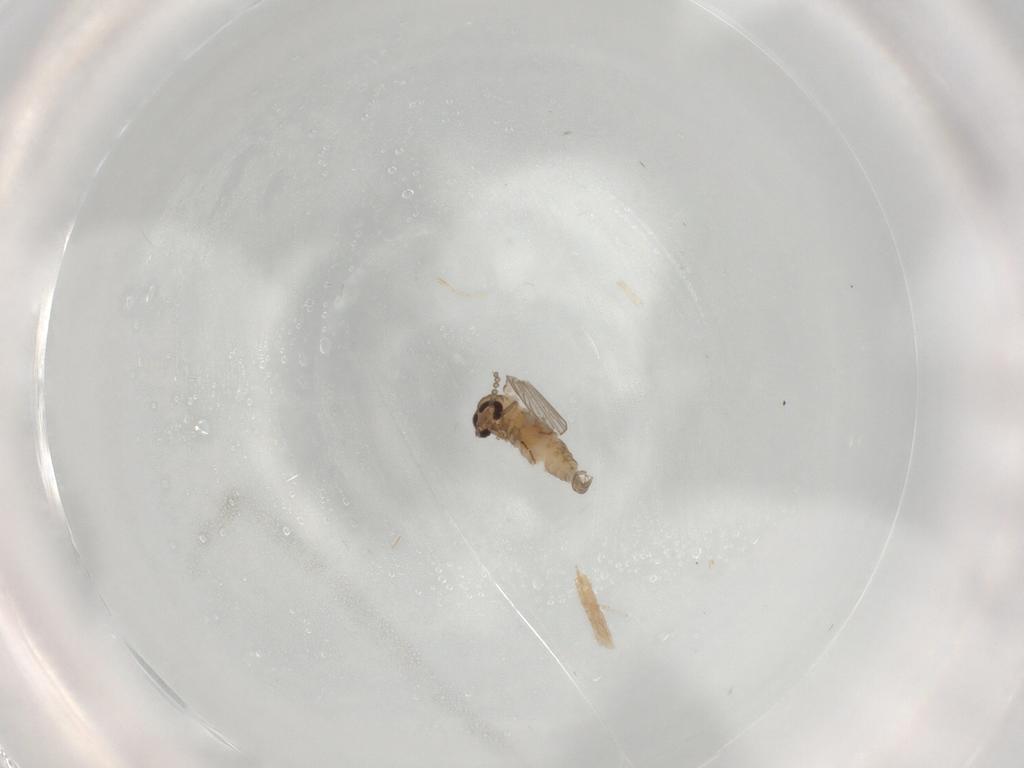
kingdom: Animalia
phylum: Arthropoda
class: Insecta
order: Diptera
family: Psychodidae
